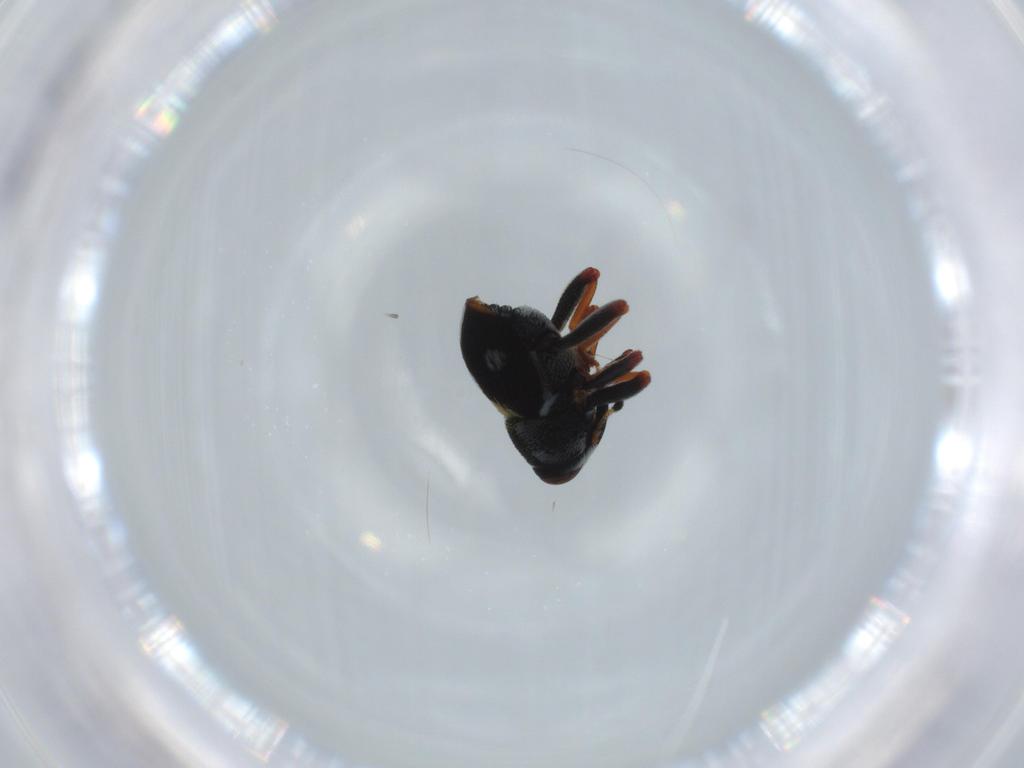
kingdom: Animalia
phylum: Arthropoda
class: Insecta
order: Coleoptera
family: Curculionidae
